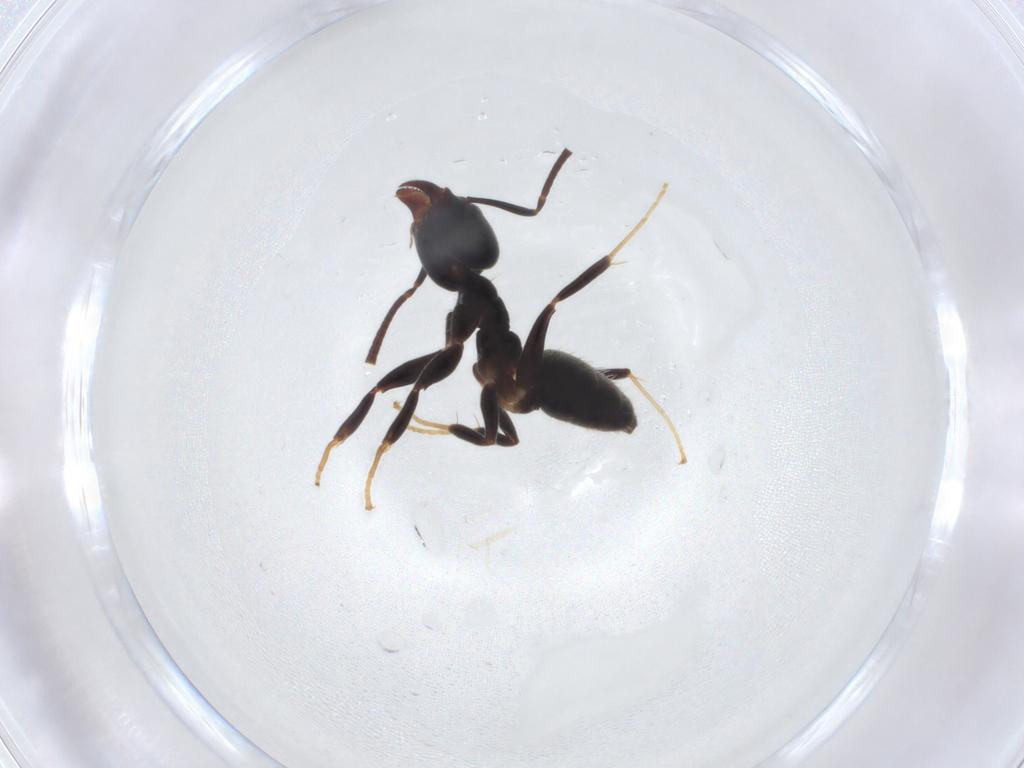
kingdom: Animalia
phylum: Arthropoda
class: Insecta
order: Hymenoptera
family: Formicidae
